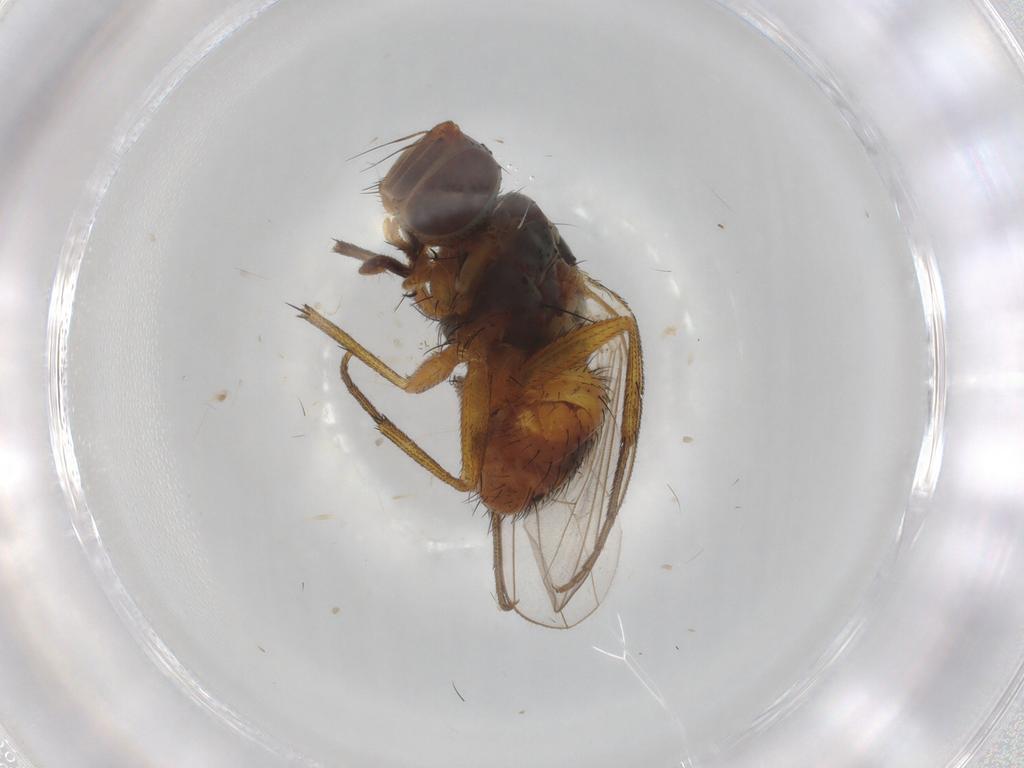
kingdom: Animalia
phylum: Arthropoda
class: Insecta
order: Diptera
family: Syrphidae
